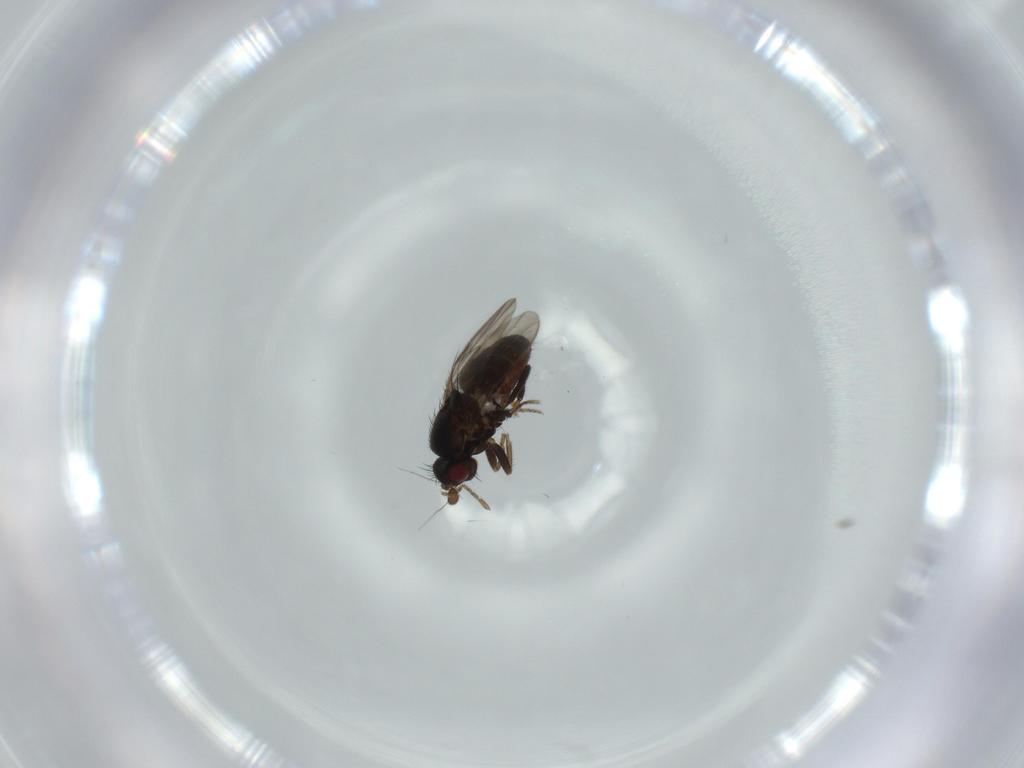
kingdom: Animalia
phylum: Arthropoda
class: Insecta
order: Diptera
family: Sphaeroceridae
